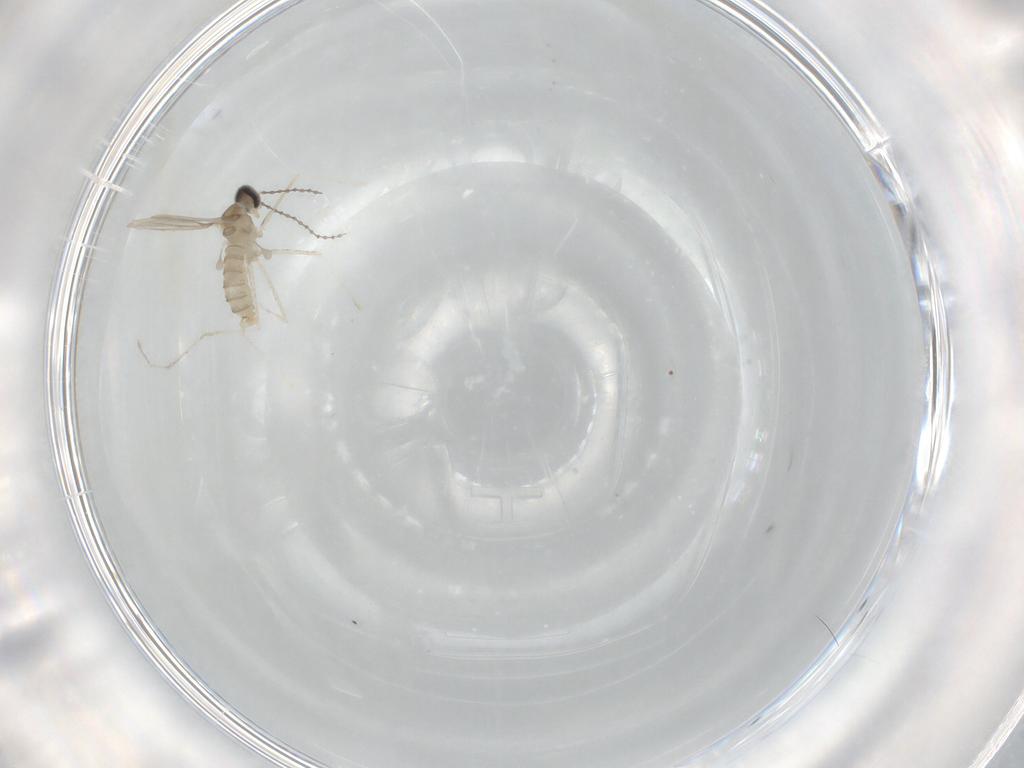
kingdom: Animalia
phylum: Arthropoda
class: Insecta
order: Diptera
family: Cecidomyiidae
